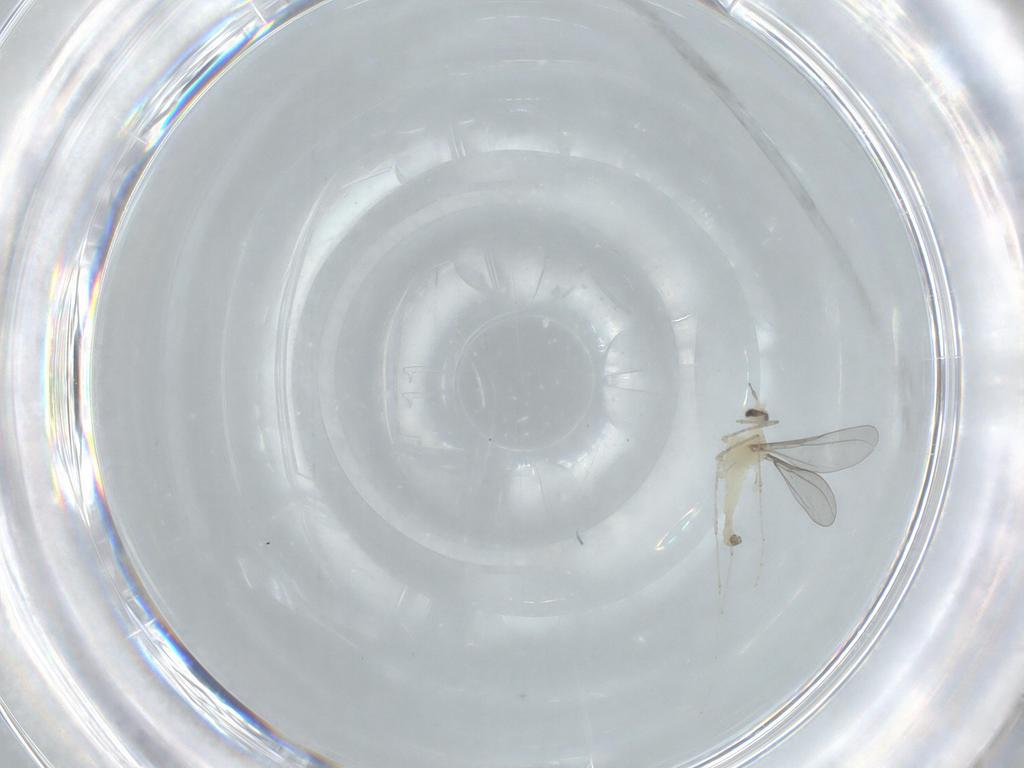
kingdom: Animalia
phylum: Arthropoda
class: Insecta
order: Diptera
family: Cecidomyiidae
